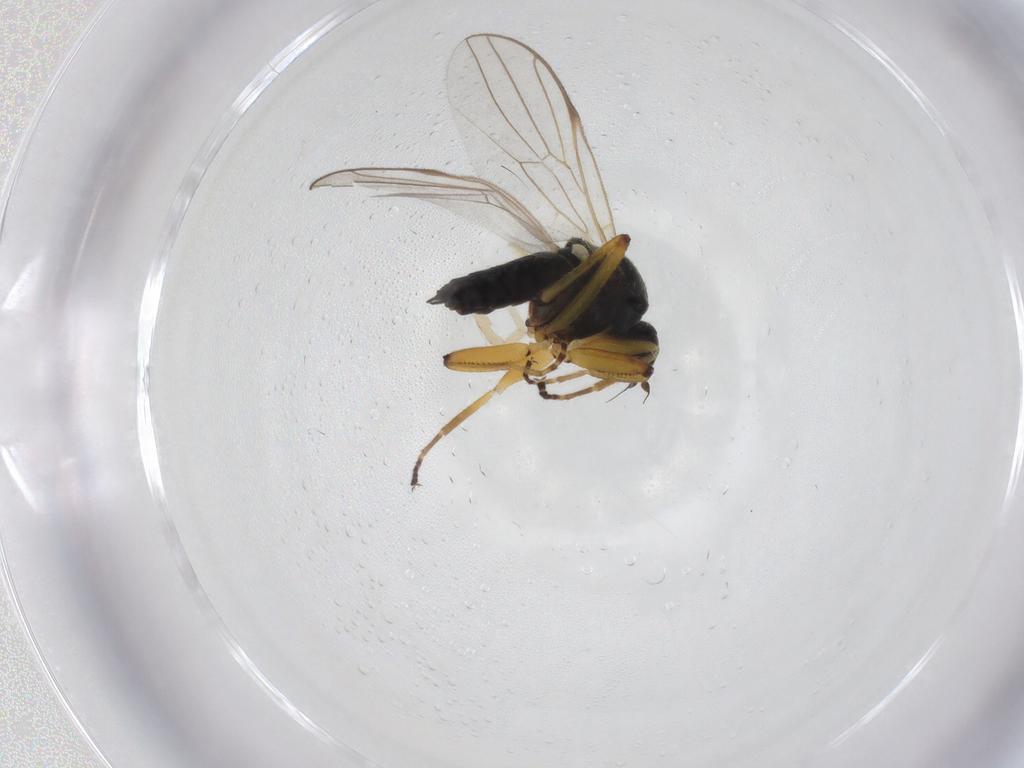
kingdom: Animalia
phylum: Arthropoda
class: Insecta
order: Diptera
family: Hybotidae
